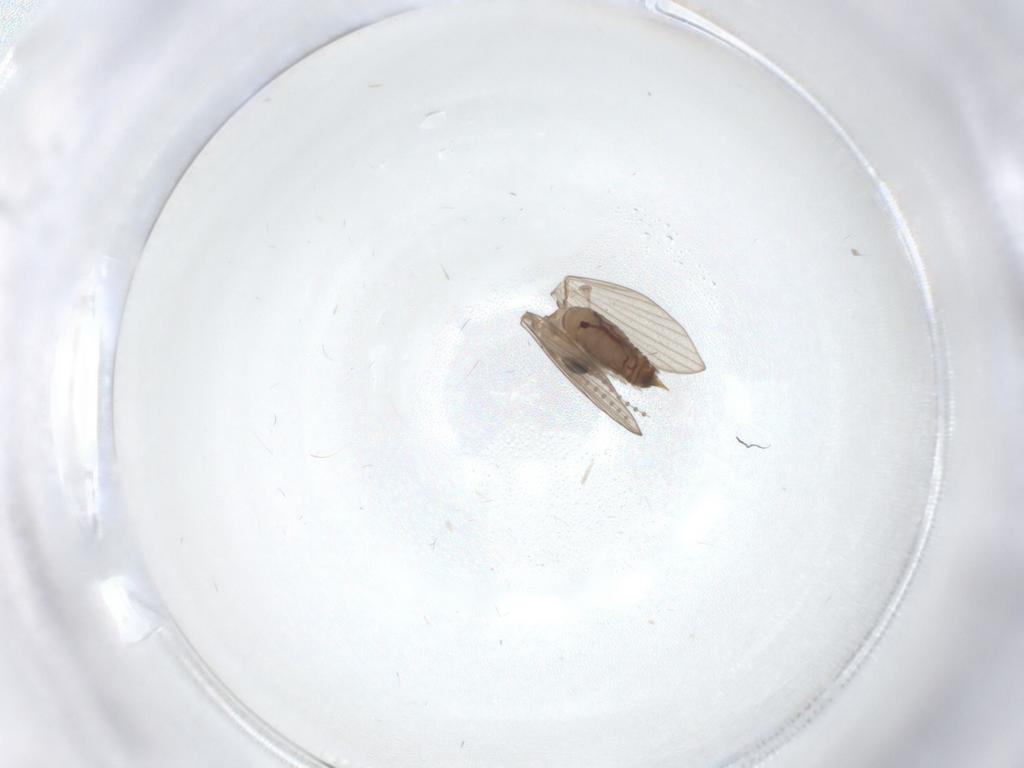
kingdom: Animalia
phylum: Arthropoda
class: Insecta
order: Diptera
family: Cecidomyiidae
